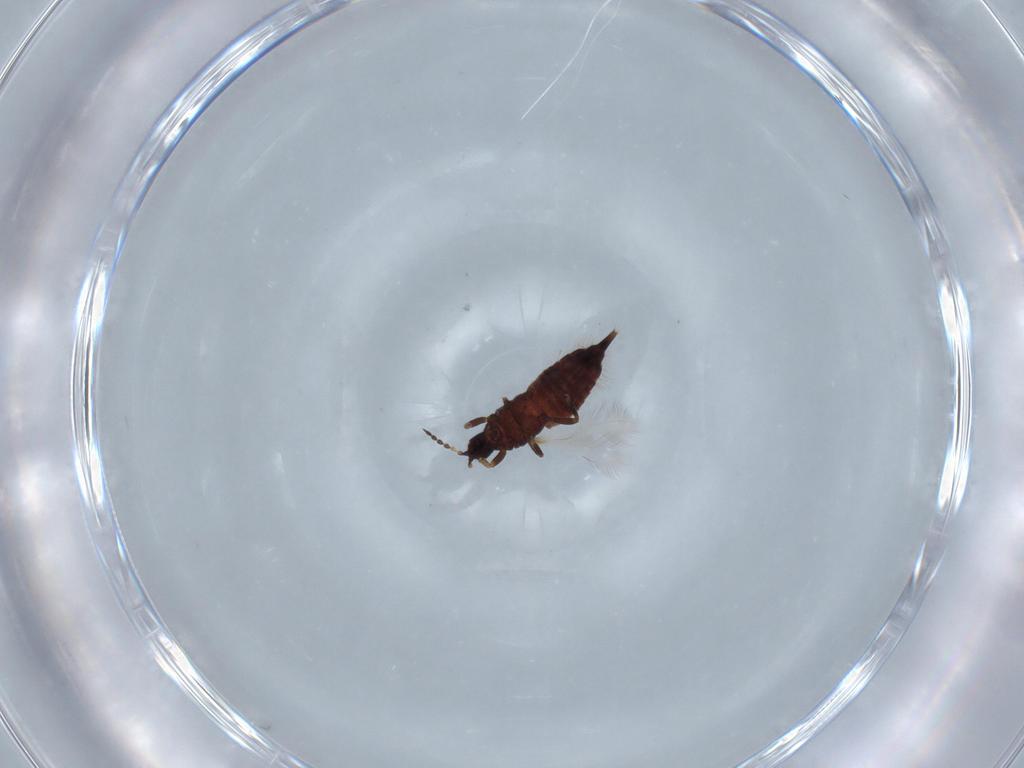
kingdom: Animalia
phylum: Arthropoda
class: Insecta
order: Thysanoptera
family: Phlaeothripidae
